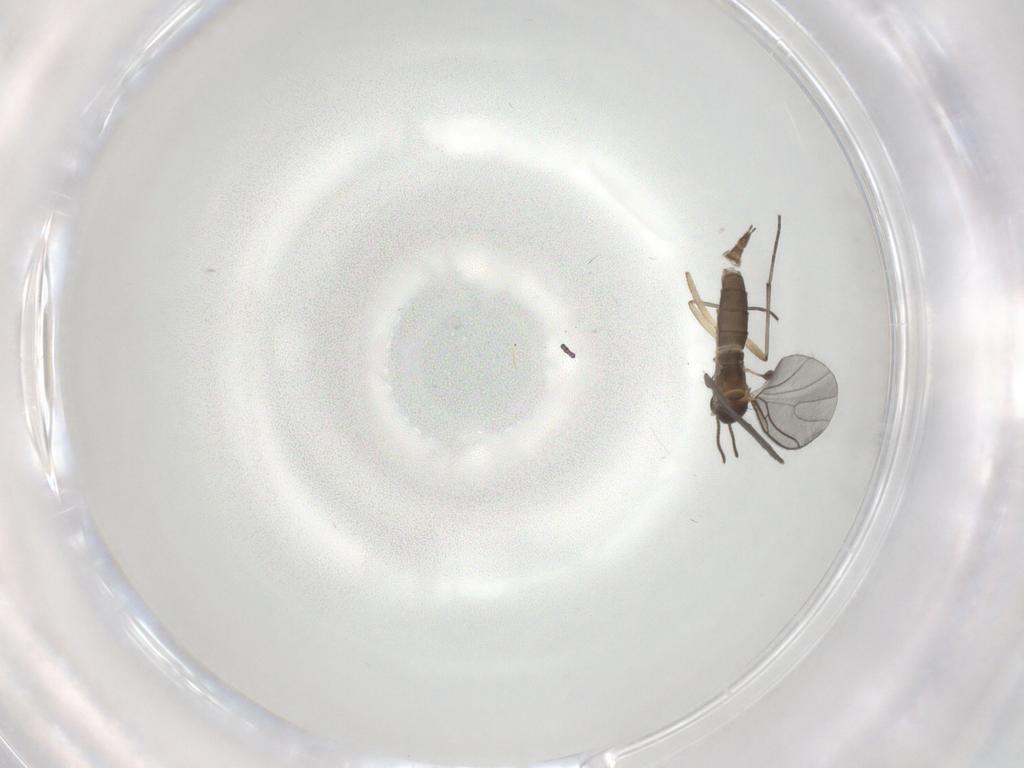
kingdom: Animalia
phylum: Arthropoda
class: Insecta
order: Diptera
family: Sciaridae
